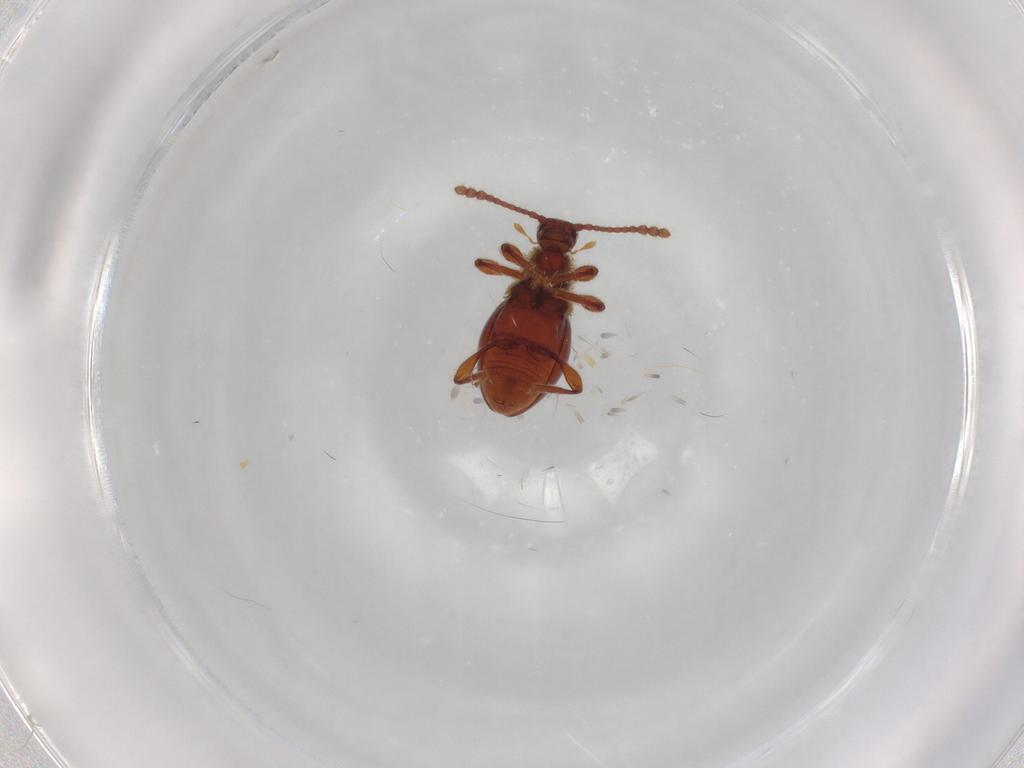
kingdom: Animalia
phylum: Arthropoda
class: Insecta
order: Coleoptera
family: Staphylinidae
